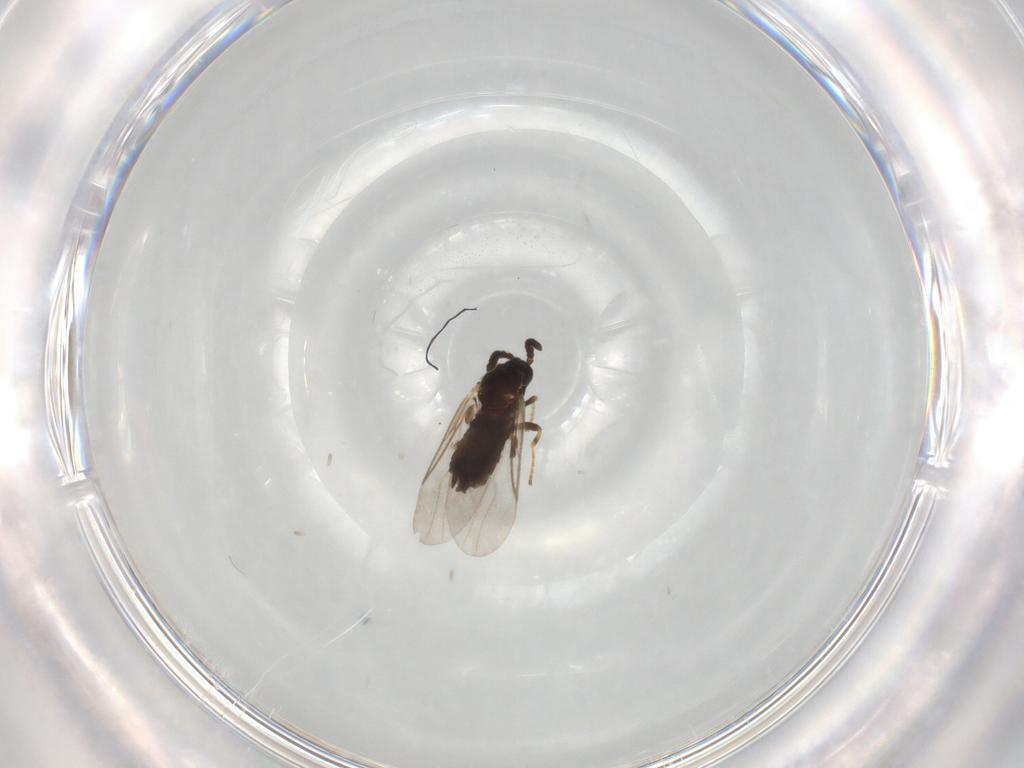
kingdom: Animalia
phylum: Arthropoda
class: Insecta
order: Diptera
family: Scatopsidae
